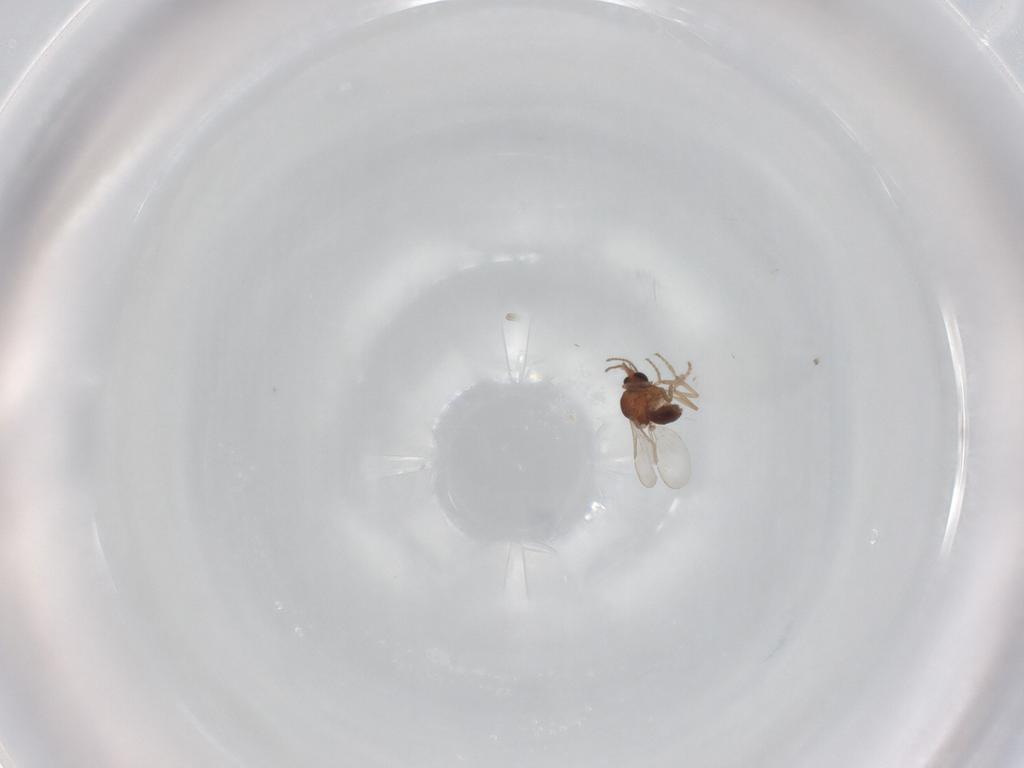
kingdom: Animalia
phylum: Arthropoda
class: Insecta
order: Diptera
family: Ceratopogonidae
